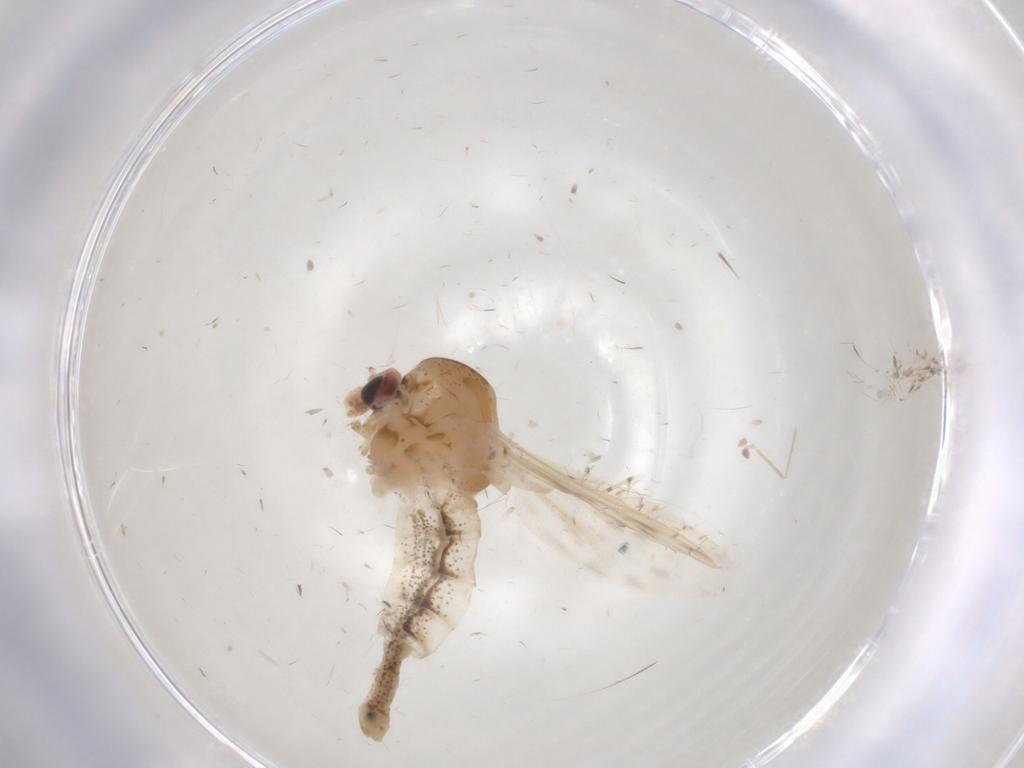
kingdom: Animalia
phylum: Arthropoda
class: Insecta
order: Diptera
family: Chaoboridae
